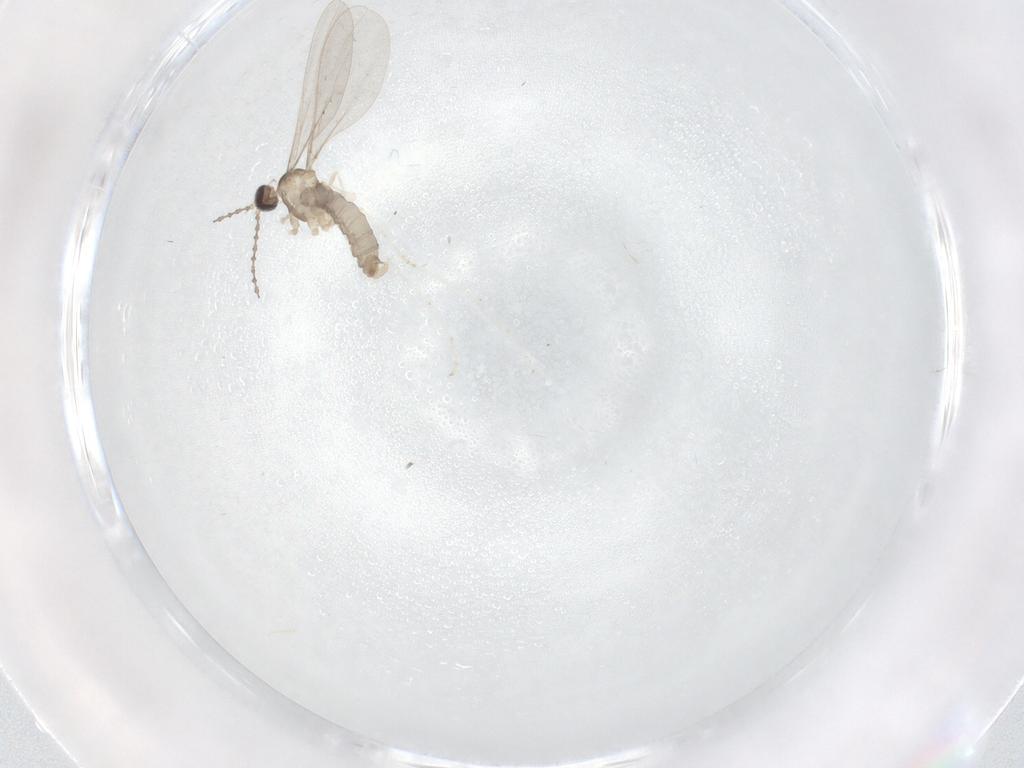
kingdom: Animalia
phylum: Arthropoda
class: Insecta
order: Diptera
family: Cecidomyiidae
